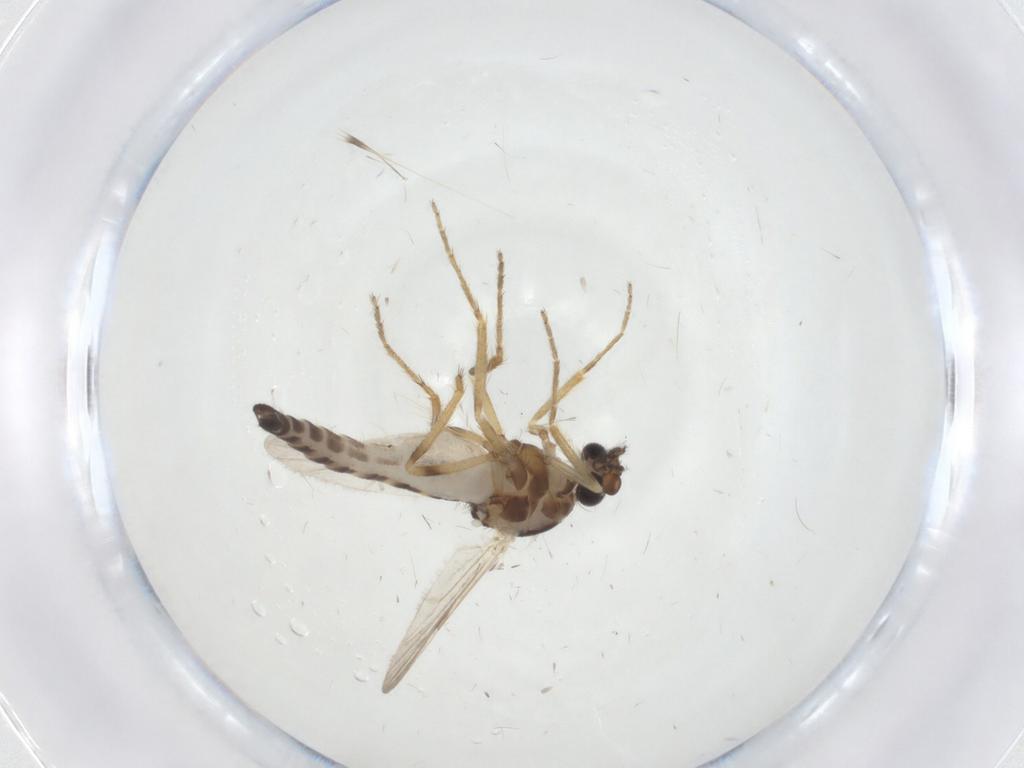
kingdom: Animalia
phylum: Arthropoda
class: Insecta
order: Diptera
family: Ceratopogonidae
